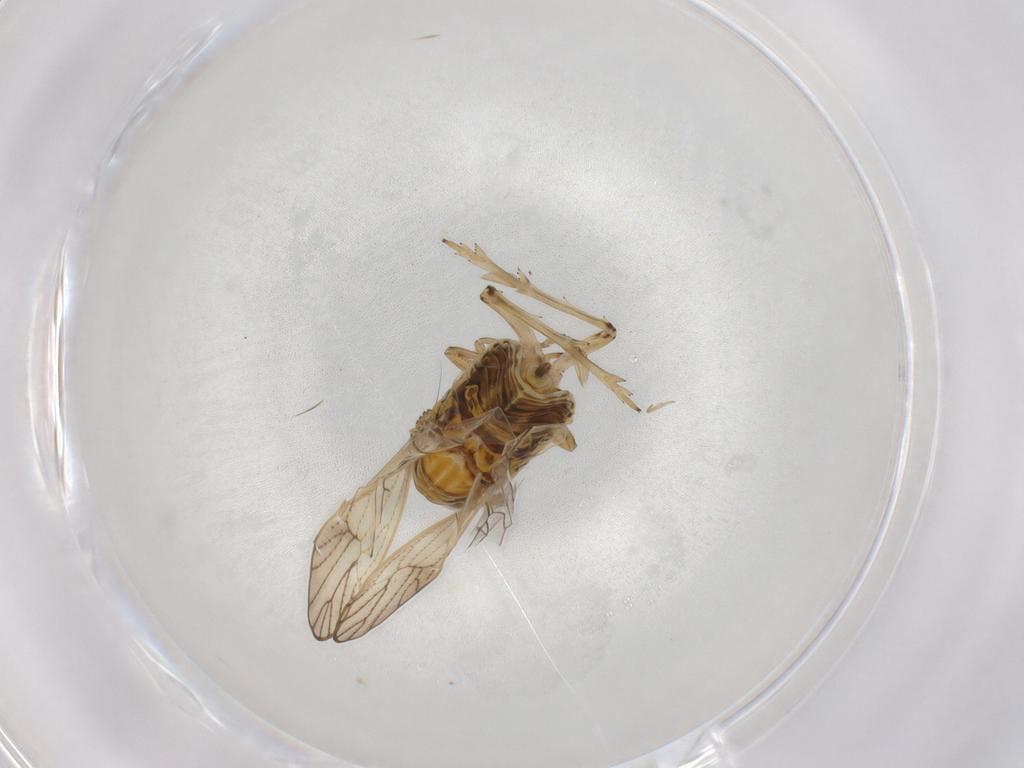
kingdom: Animalia
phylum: Arthropoda
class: Insecta
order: Hemiptera
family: Delphacidae
